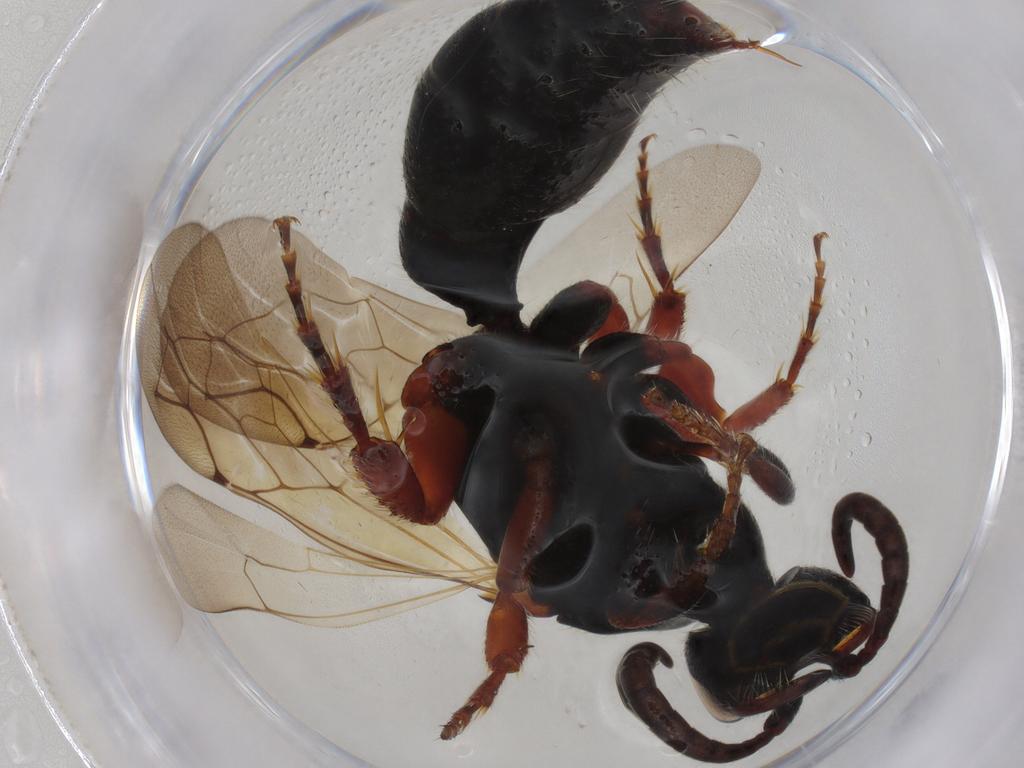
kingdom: Animalia
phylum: Arthropoda
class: Insecta
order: Hymenoptera
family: Tiphiidae
